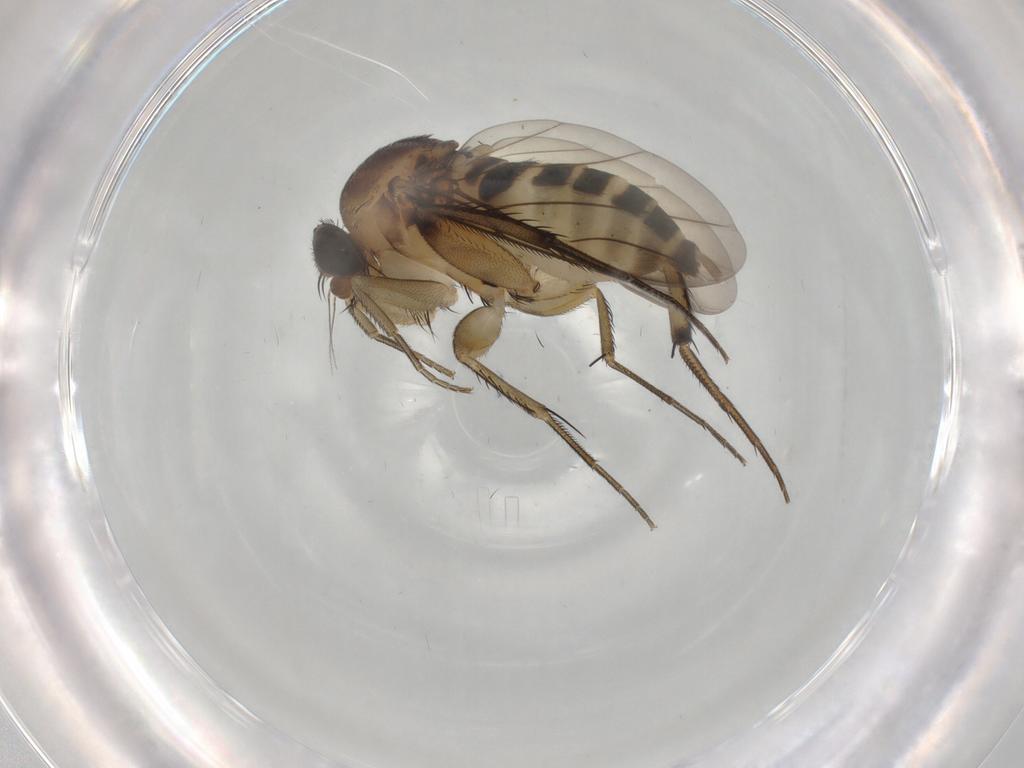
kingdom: Animalia
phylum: Arthropoda
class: Insecta
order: Diptera
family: Phoridae
